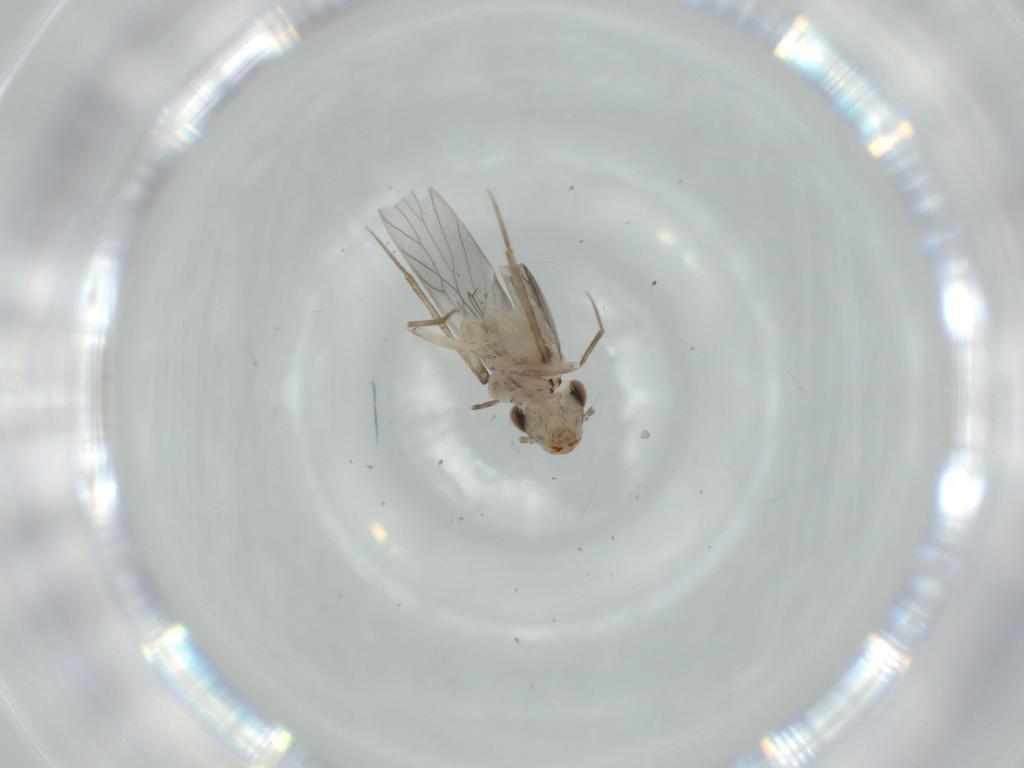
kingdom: Animalia
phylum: Arthropoda
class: Insecta
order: Psocodea
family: Lepidopsocidae
